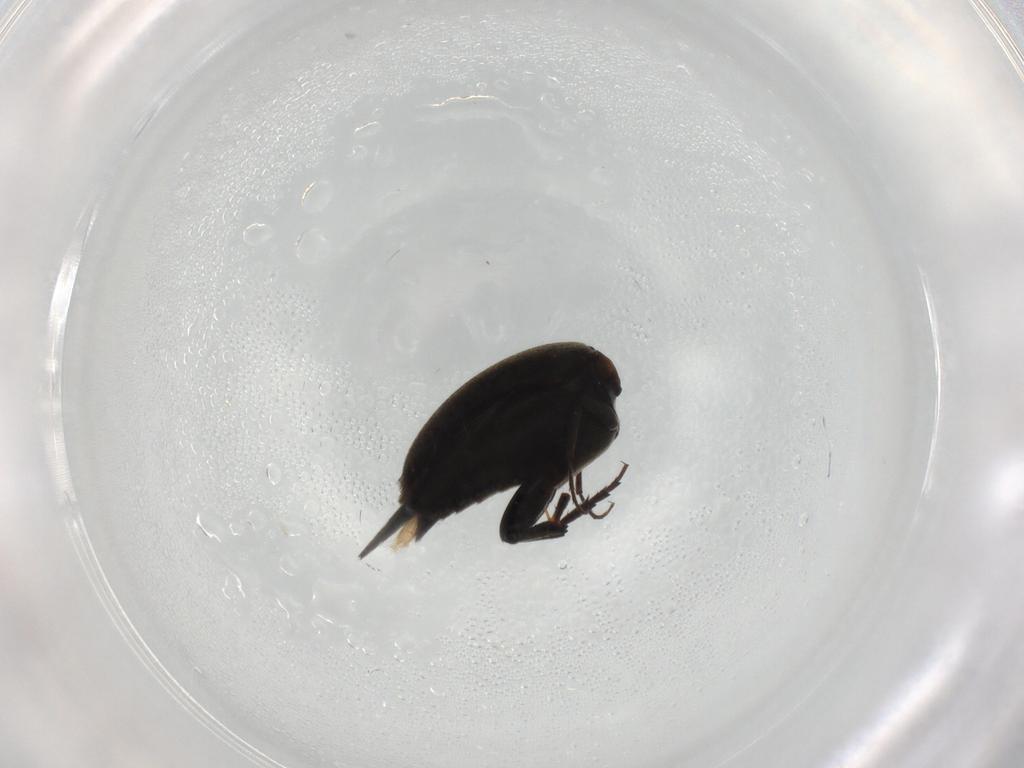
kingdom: Animalia
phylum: Arthropoda
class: Insecta
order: Coleoptera
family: Mordellidae
